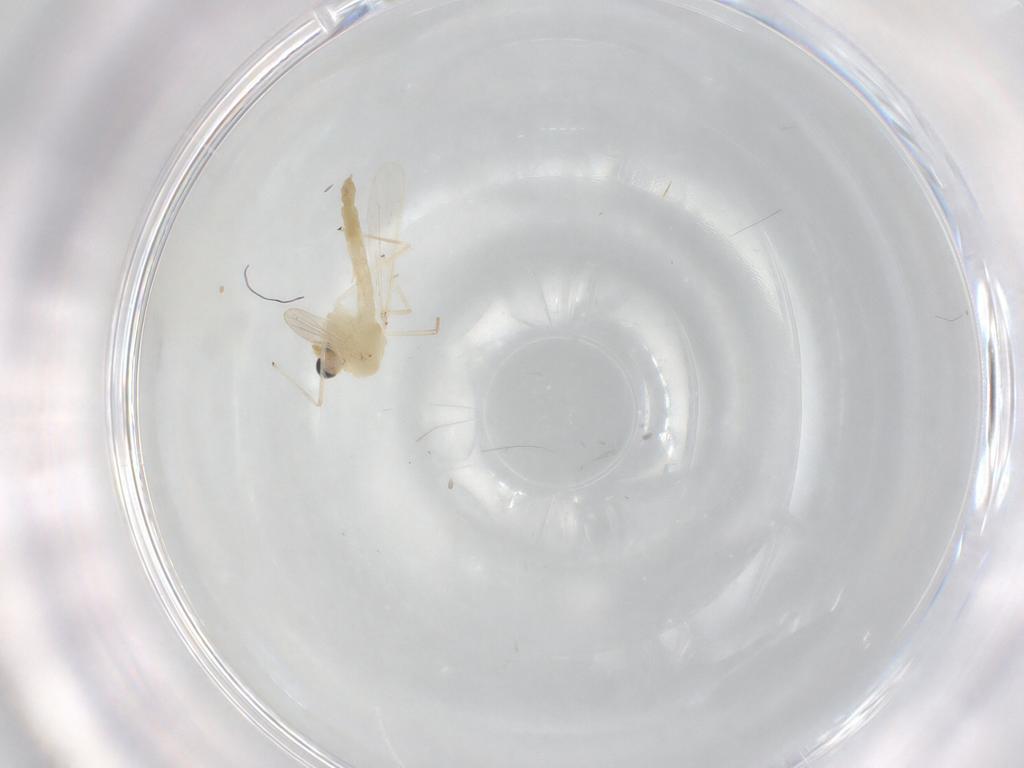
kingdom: Animalia
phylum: Arthropoda
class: Insecta
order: Diptera
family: Chironomidae
